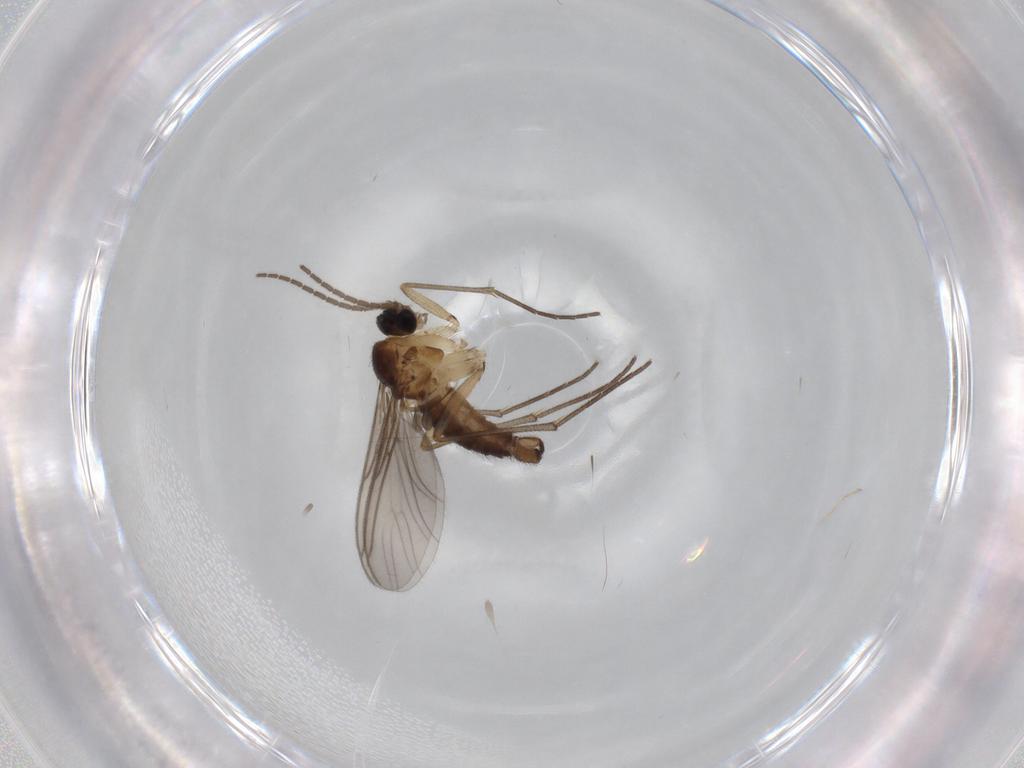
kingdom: Animalia
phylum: Arthropoda
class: Insecta
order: Diptera
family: Sciaridae
